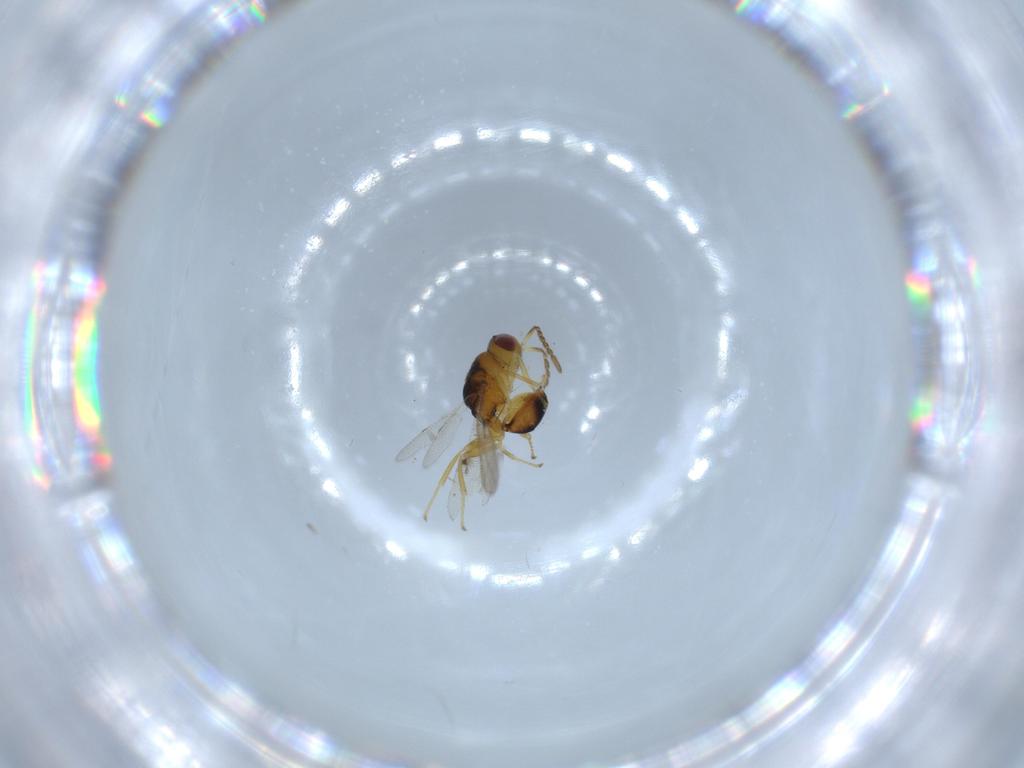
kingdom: Animalia
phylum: Arthropoda
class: Insecta
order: Hymenoptera
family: Eurytomidae
